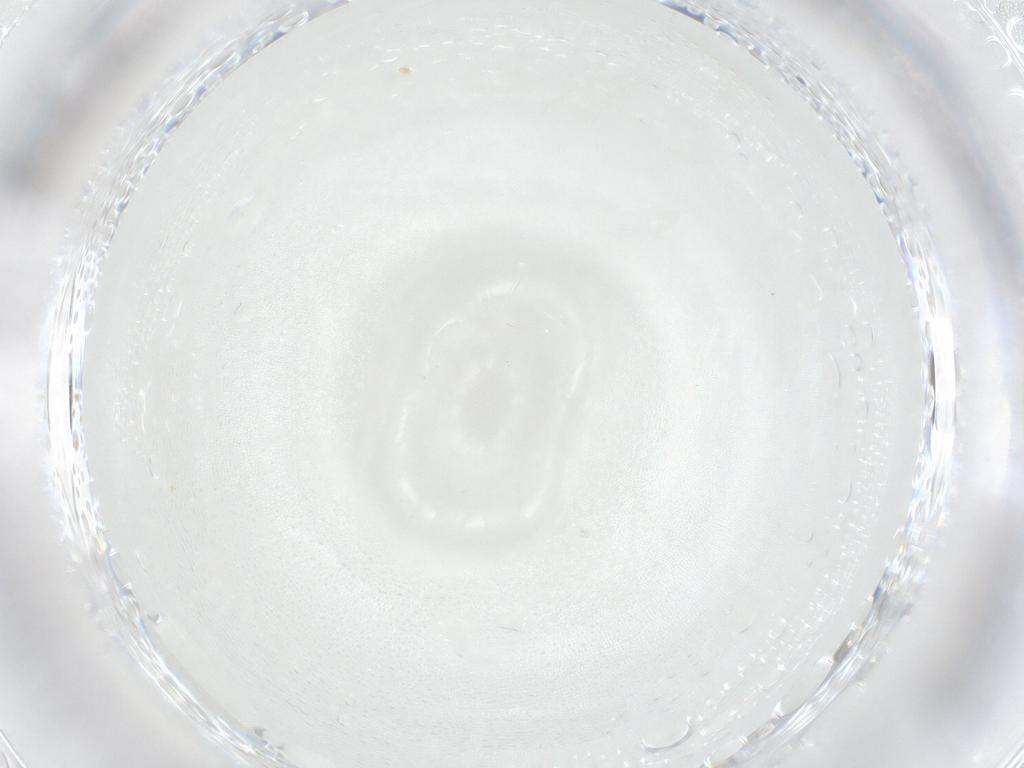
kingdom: Animalia
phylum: Arthropoda
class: Insecta
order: Coleoptera
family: Chrysomelidae
